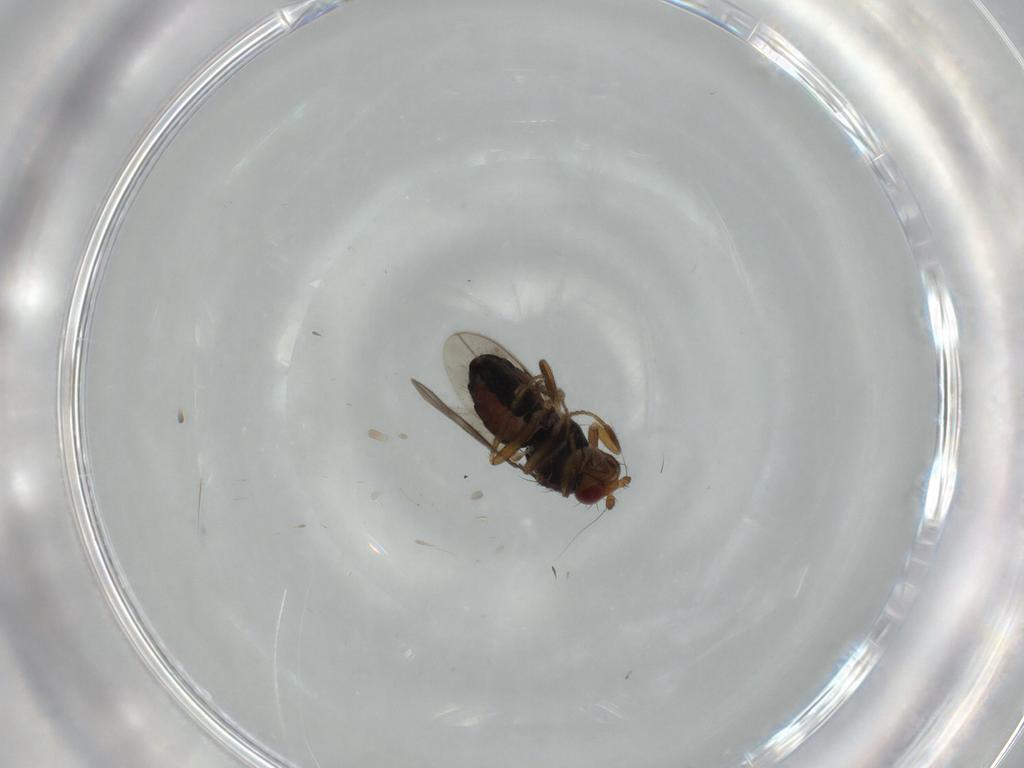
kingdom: Animalia
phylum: Arthropoda
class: Insecta
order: Diptera
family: Sphaeroceridae
